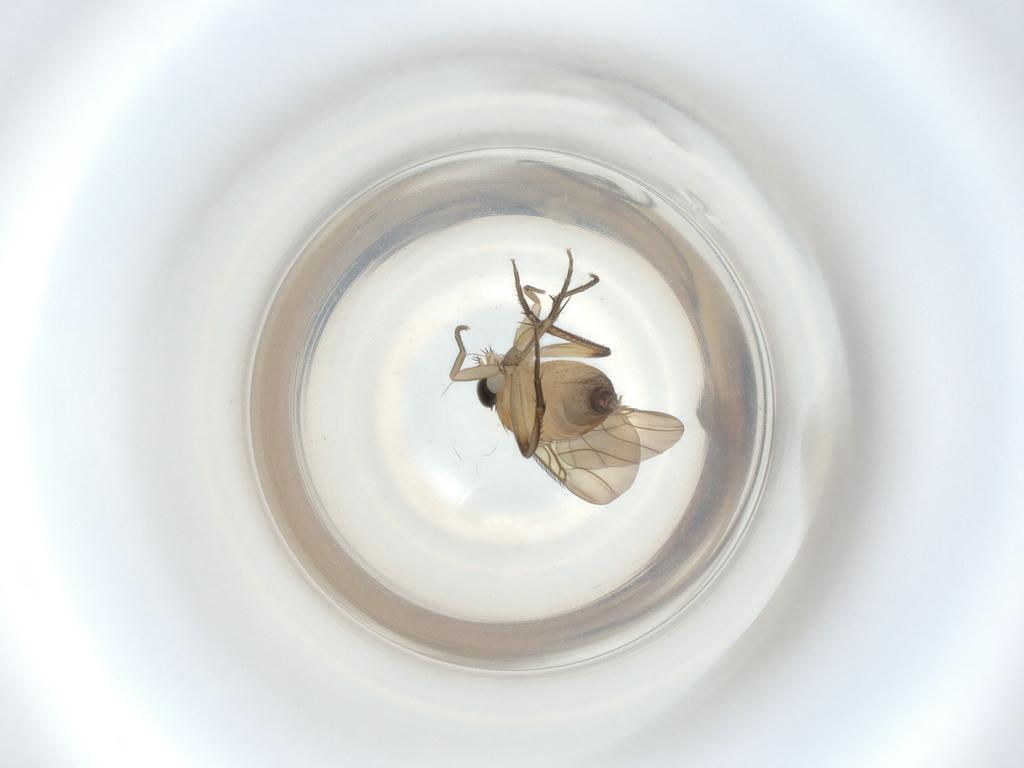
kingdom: Animalia
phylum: Arthropoda
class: Insecta
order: Diptera
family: Phoridae
